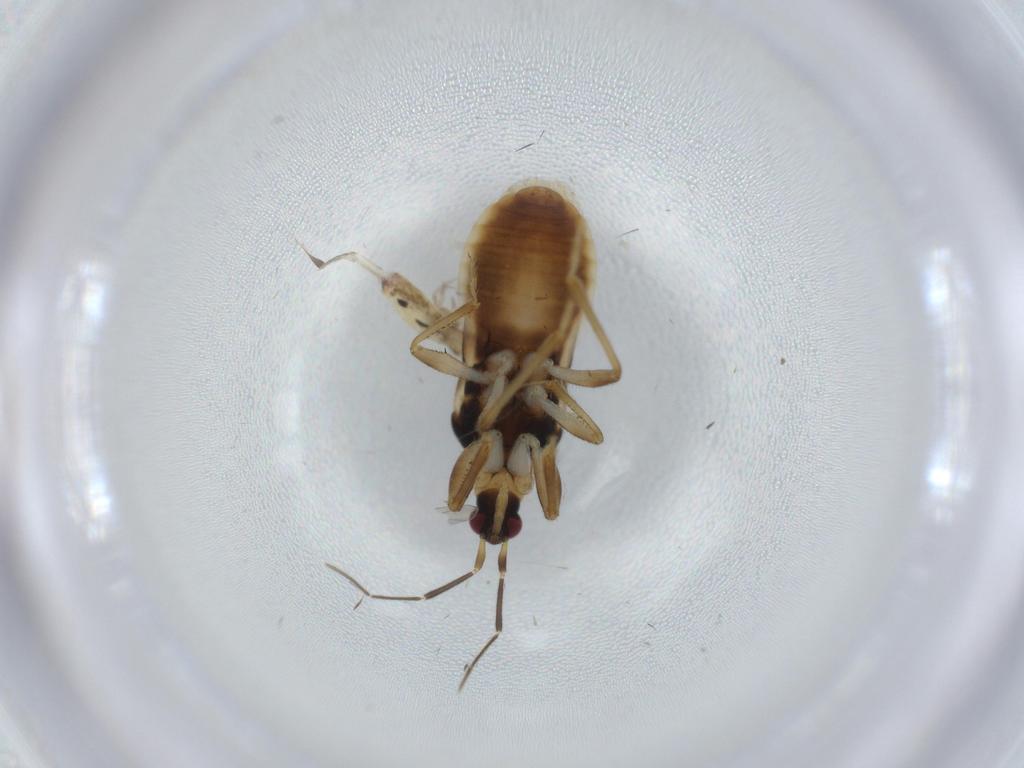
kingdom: Animalia
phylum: Arthropoda
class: Insecta
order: Hemiptera
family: Nabidae
